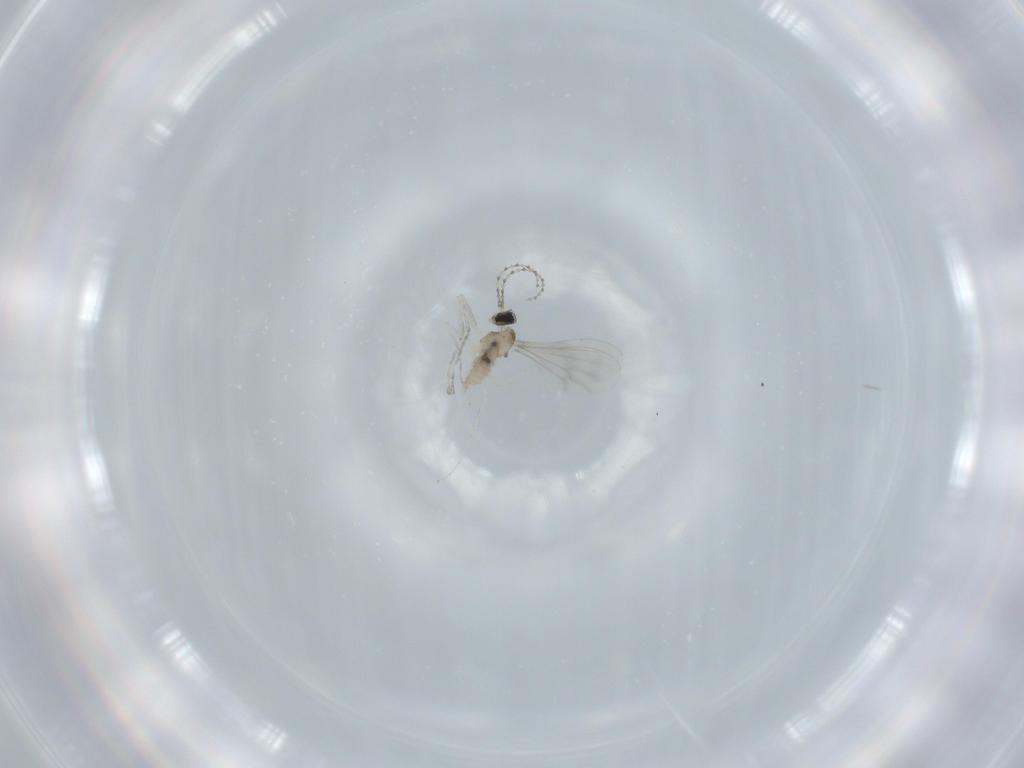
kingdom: Animalia
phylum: Arthropoda
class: Insecta
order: Diptera
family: Cecidomyiidae
